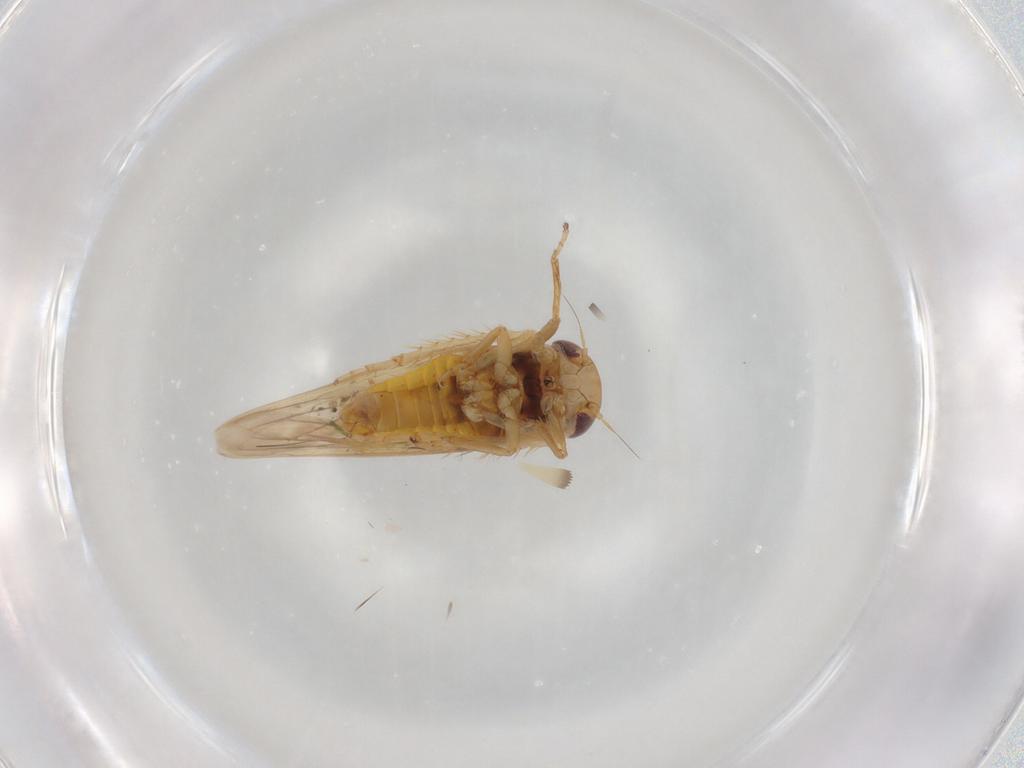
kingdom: Animalia
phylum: Arthropoda
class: Insecta
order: Hemiptera
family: Cicadellidae
